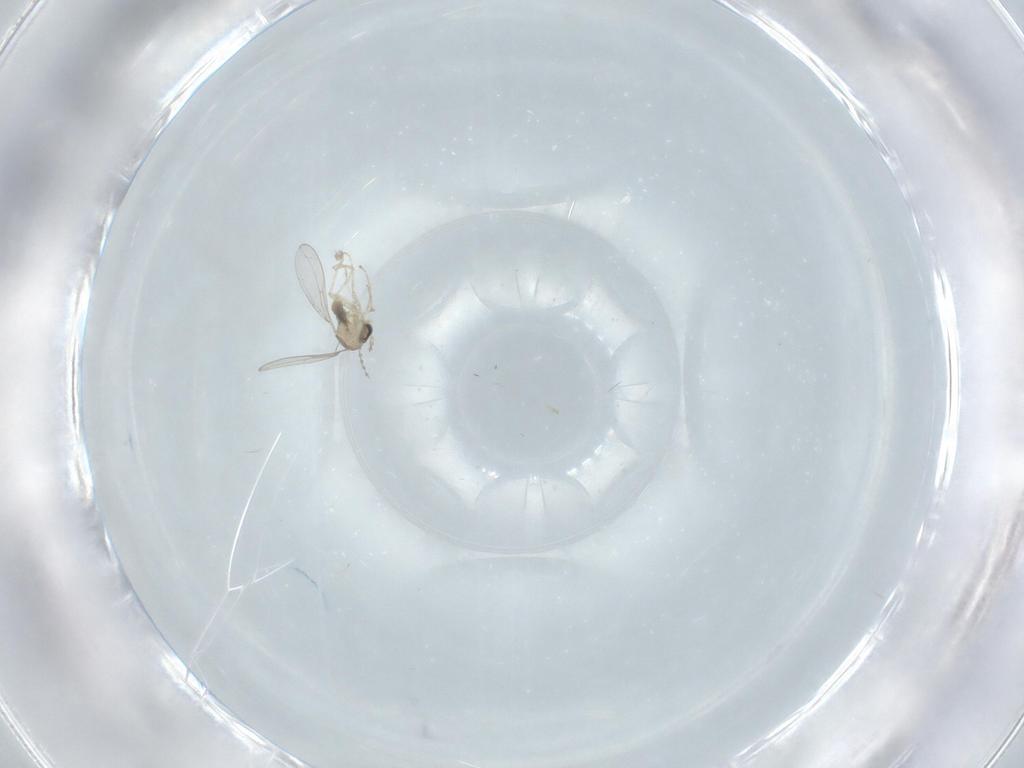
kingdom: Animalia
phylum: Arthropoda
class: Insecta
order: Diptera
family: Cecidomyiidae
